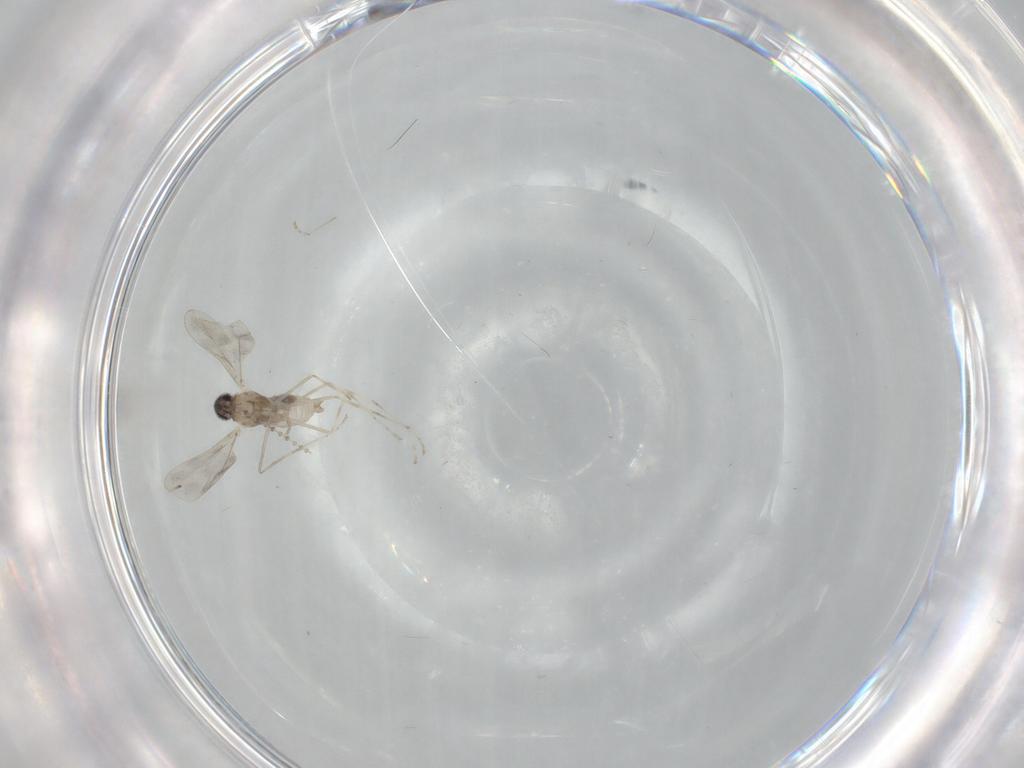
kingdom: Animalia
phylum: Arthropoda
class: Insecta
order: Diptera
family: Cecidomyiidae
